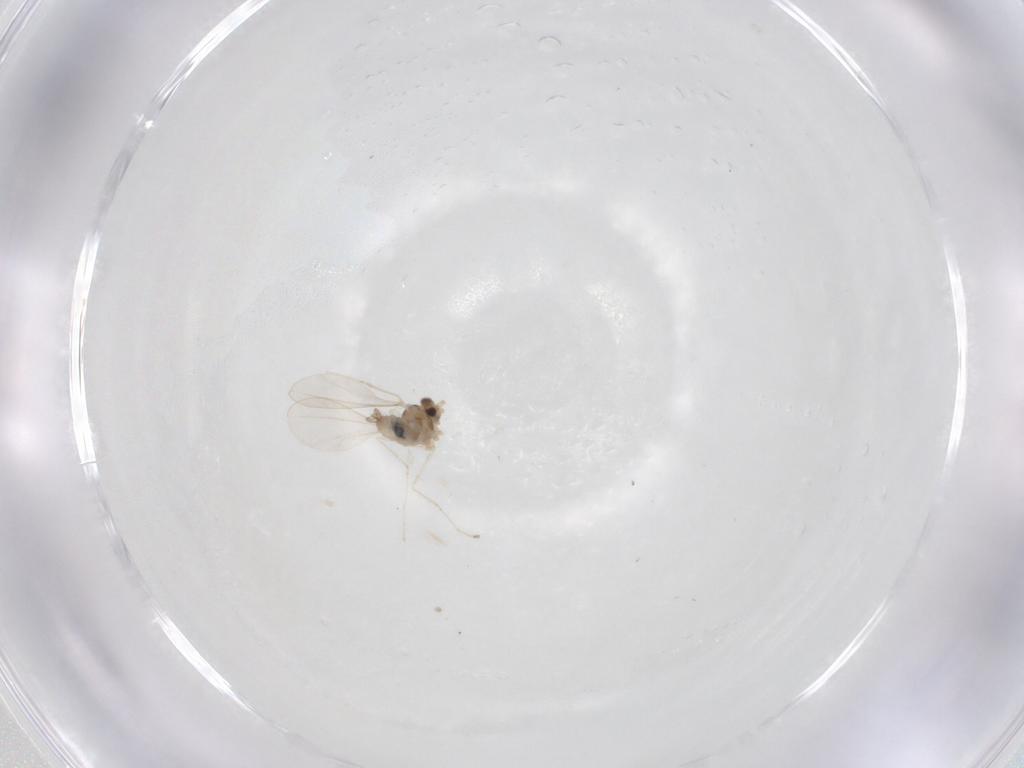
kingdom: Animalia
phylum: Arthropoda
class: Insecta
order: Diptera
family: Cecidomyiidae
